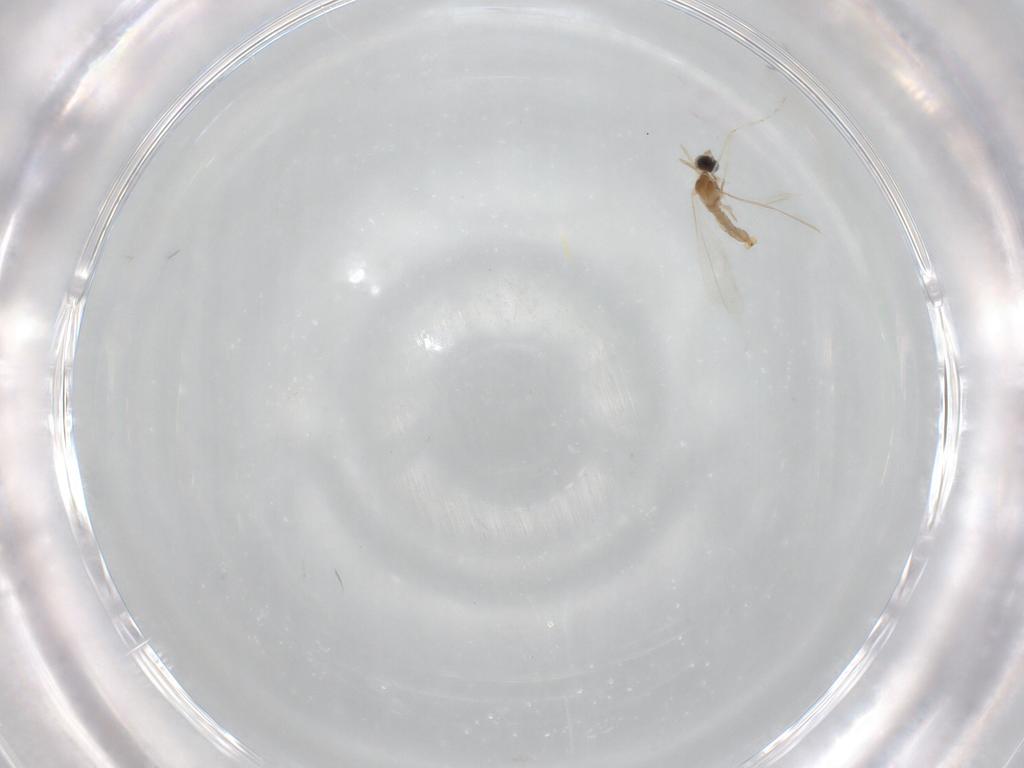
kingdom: Animalia
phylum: Arthropoda
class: Insecta
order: Diptera
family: Cecidomyiidae
